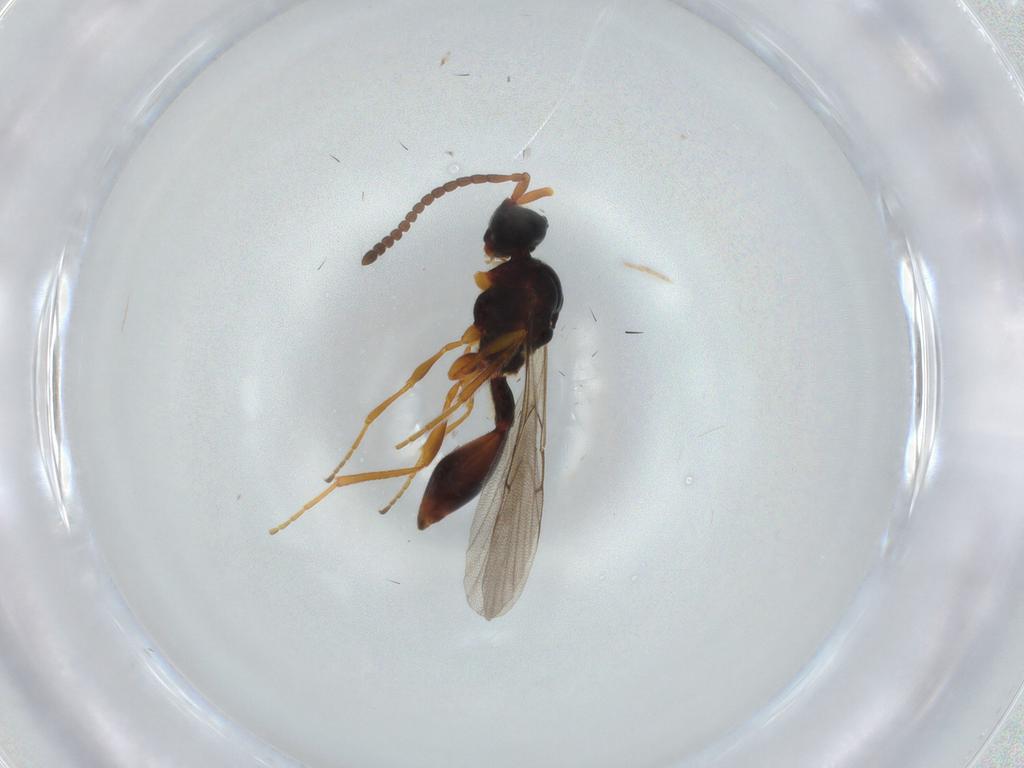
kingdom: Animalia
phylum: Arthropoda
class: Insecta
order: Hymenoptera
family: Diapriidae
